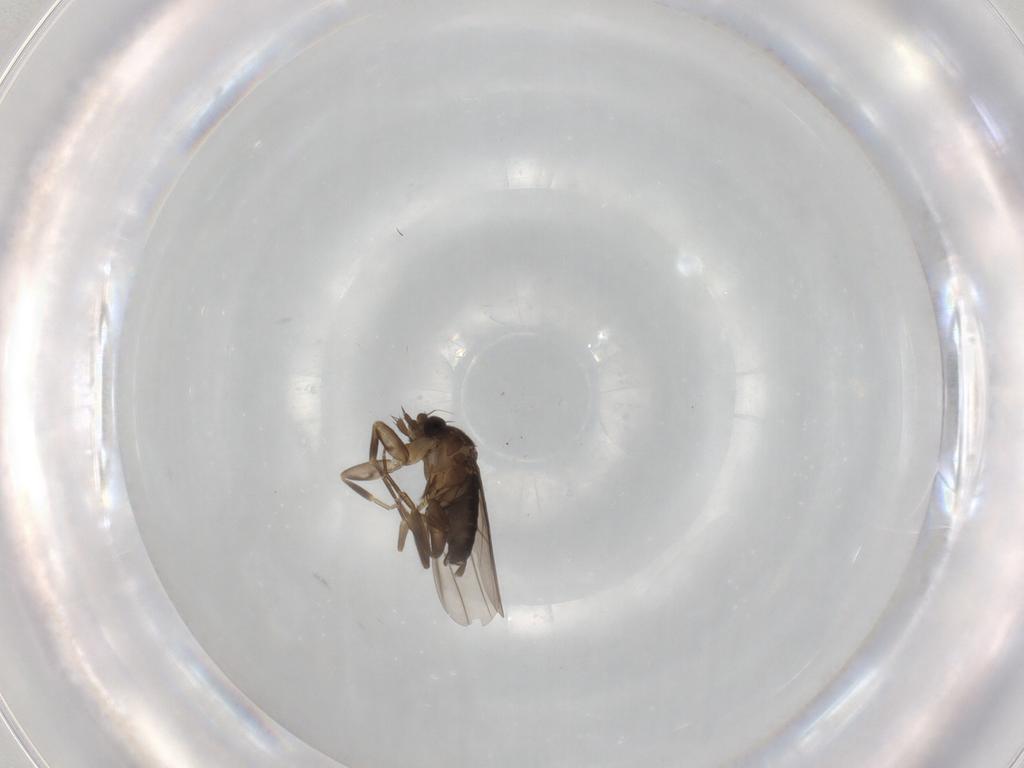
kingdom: Animalia
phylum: Arthropoda
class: Insecta
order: Diptera
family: Phoridae
